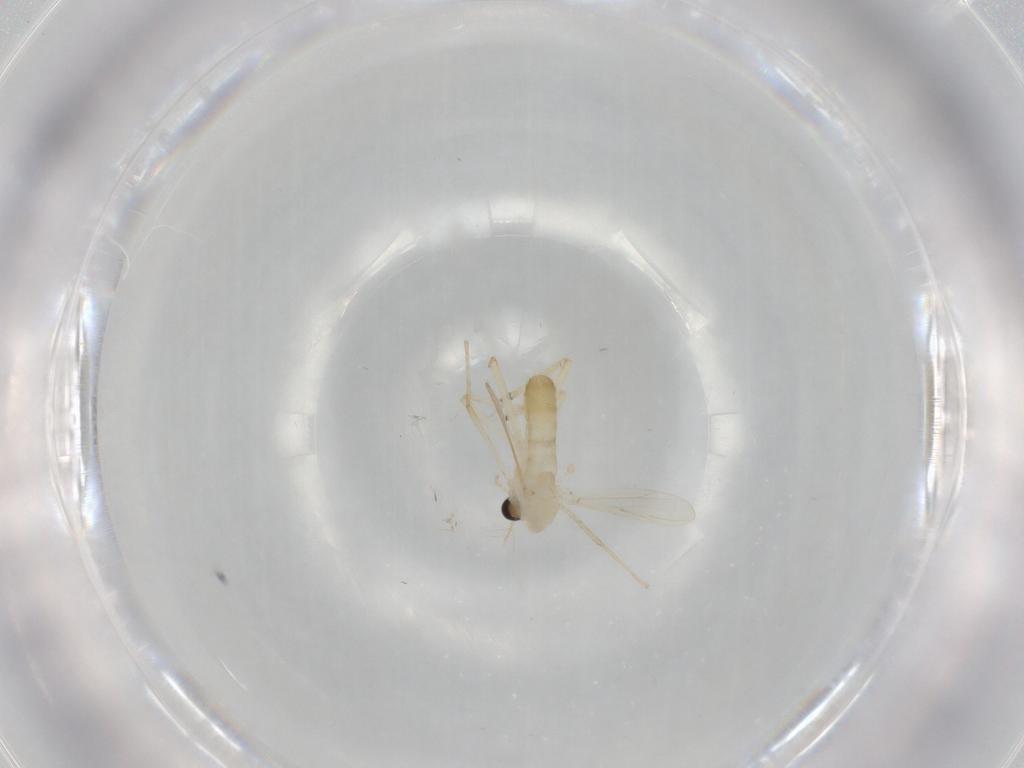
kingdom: Animalia
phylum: Arthropoda
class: Insecta
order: Diptera
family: Chironomidae
